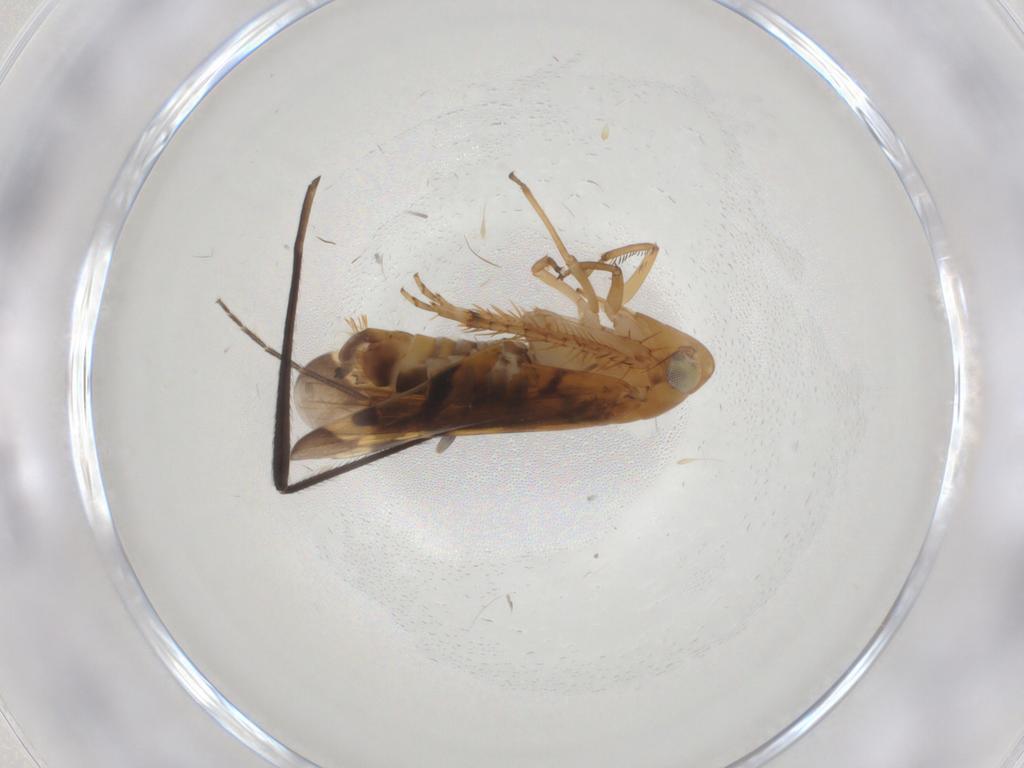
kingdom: Animalia
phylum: Arthropoda
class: Insecta
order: Hemiptera
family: Cicadellidae
